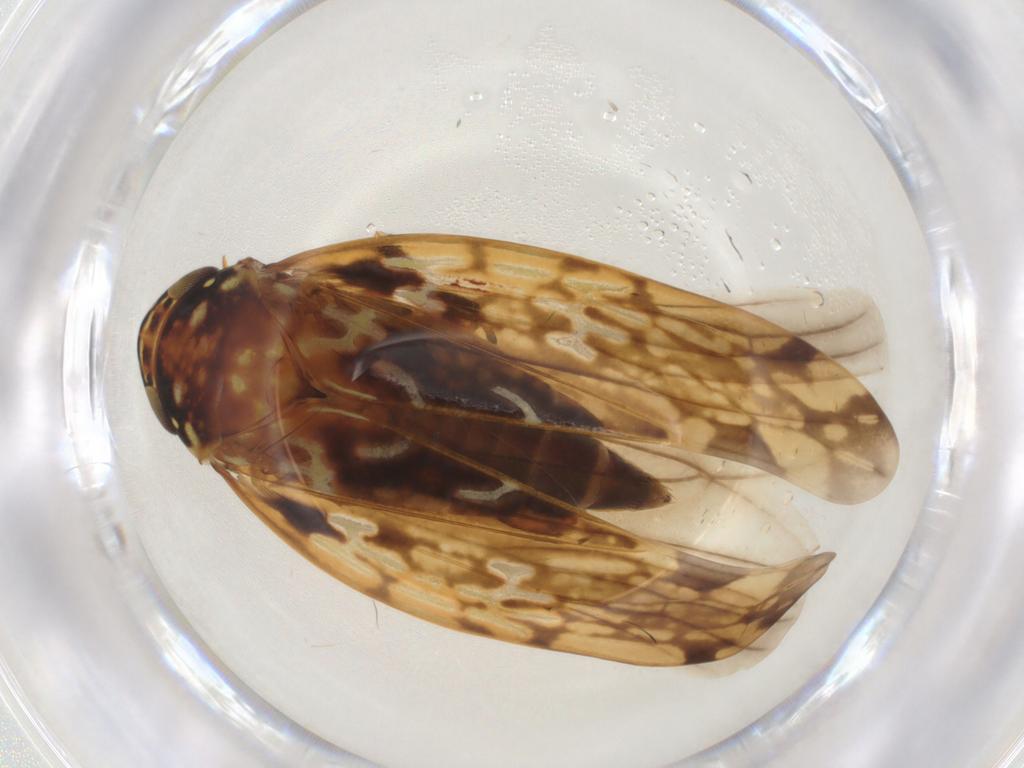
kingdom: Animalia
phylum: Arthropoda
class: Insecta
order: Hemiptera
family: Cicadellidae
